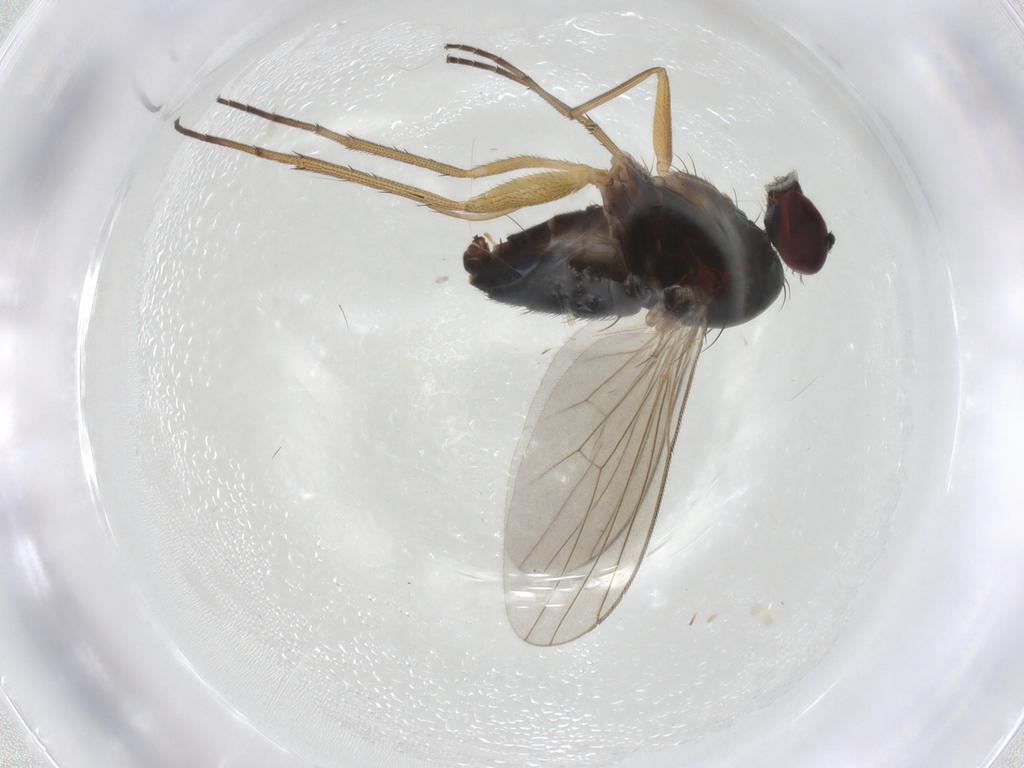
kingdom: Animalia
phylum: Arthropoda
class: Insecta
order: Diptera
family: Dolichopodidae
